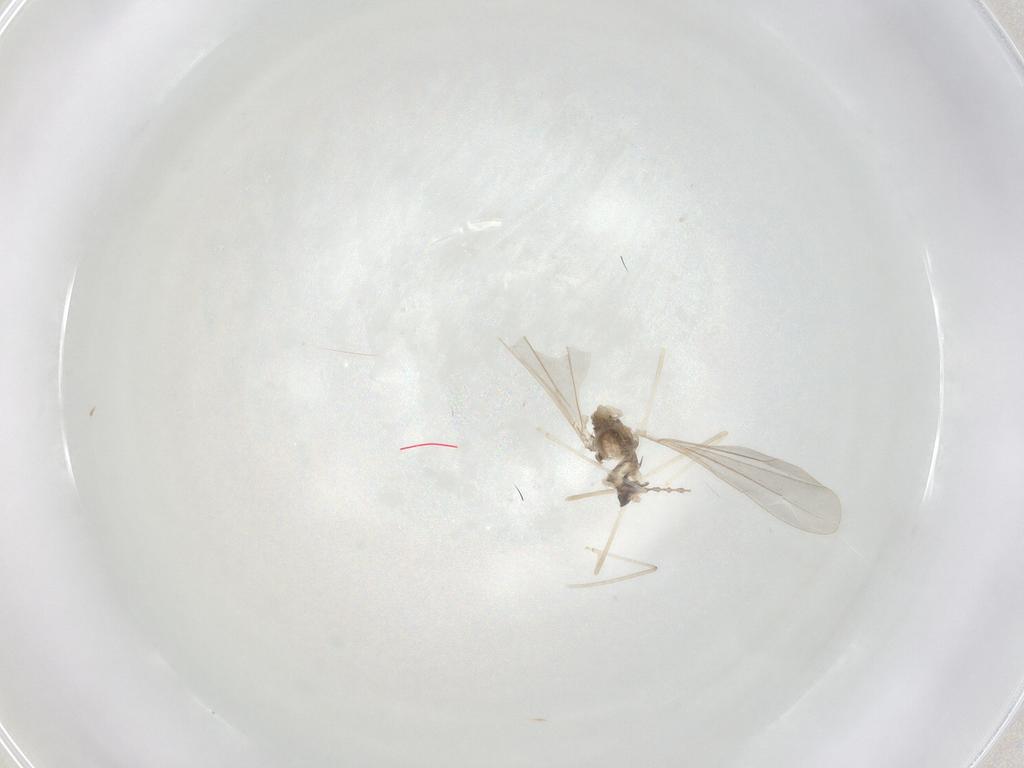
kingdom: Animalia
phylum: Arthropoda
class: Insecta
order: Diptera
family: Cecidomyiidae
